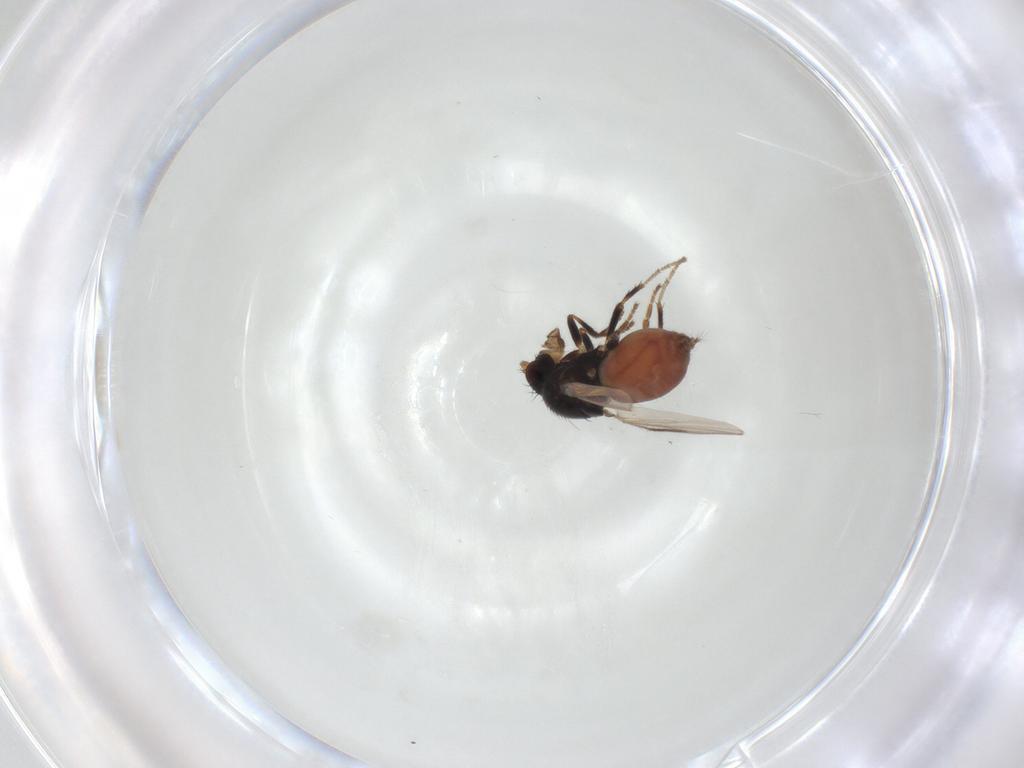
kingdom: Animalia
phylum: Arthropoda
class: Insecta
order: Diptera
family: Sphaeroceridae
